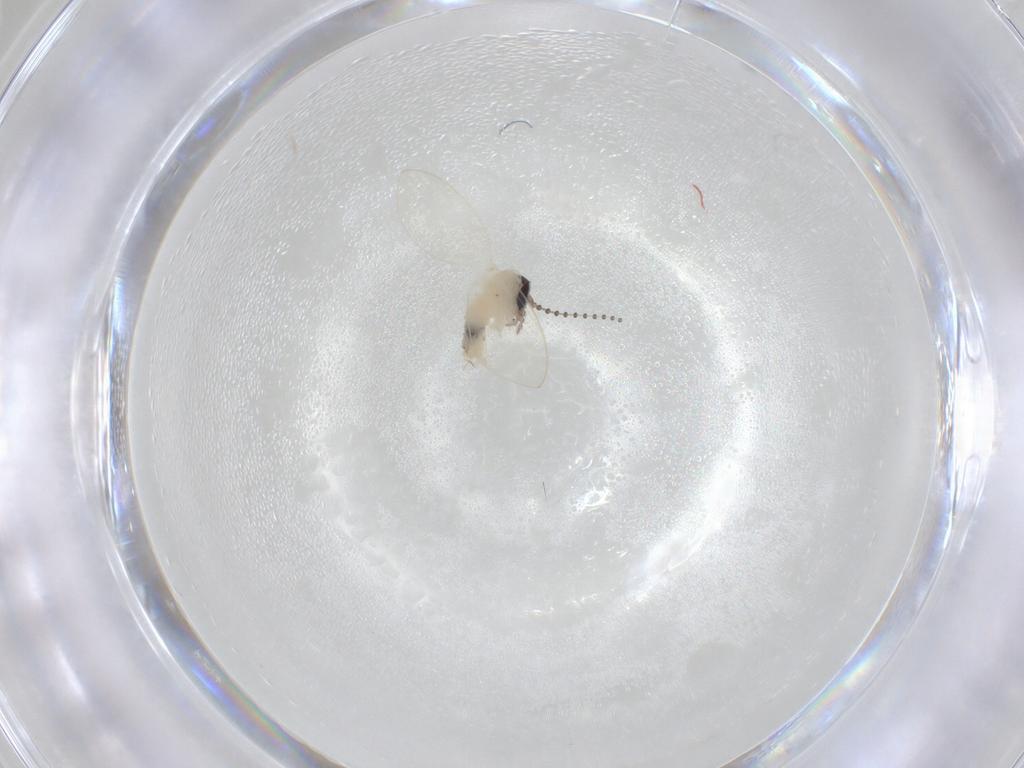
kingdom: Animalia
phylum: Arthropoda
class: Insecta
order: Diptera
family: Psychodidae
